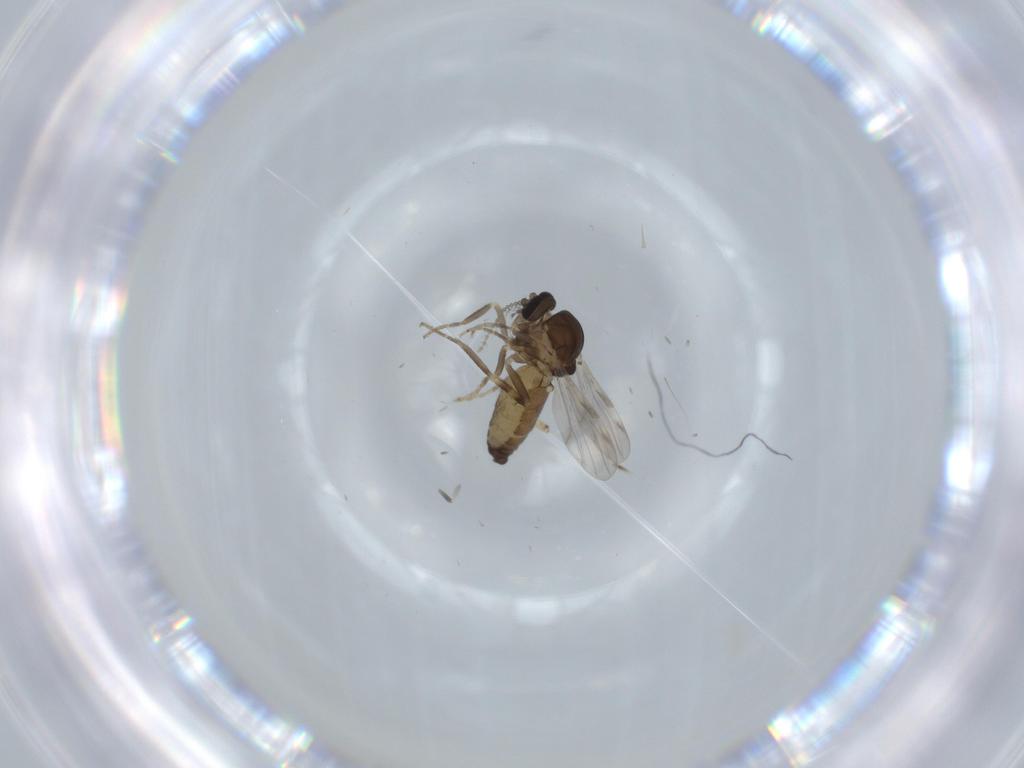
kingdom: Animalia
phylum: Arthropoda
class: Insecta
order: Diptera
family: Ceratopogonidae
